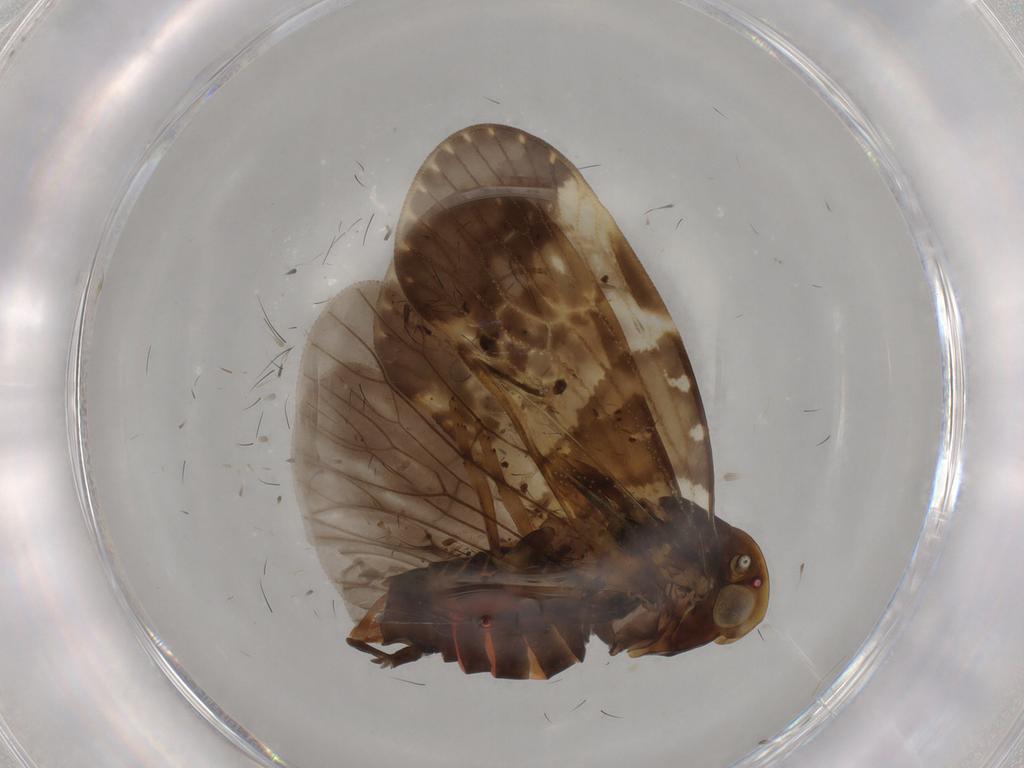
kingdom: Animalia
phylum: Arthropoda
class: Insecta
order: Hemiptera
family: Cixiidae
